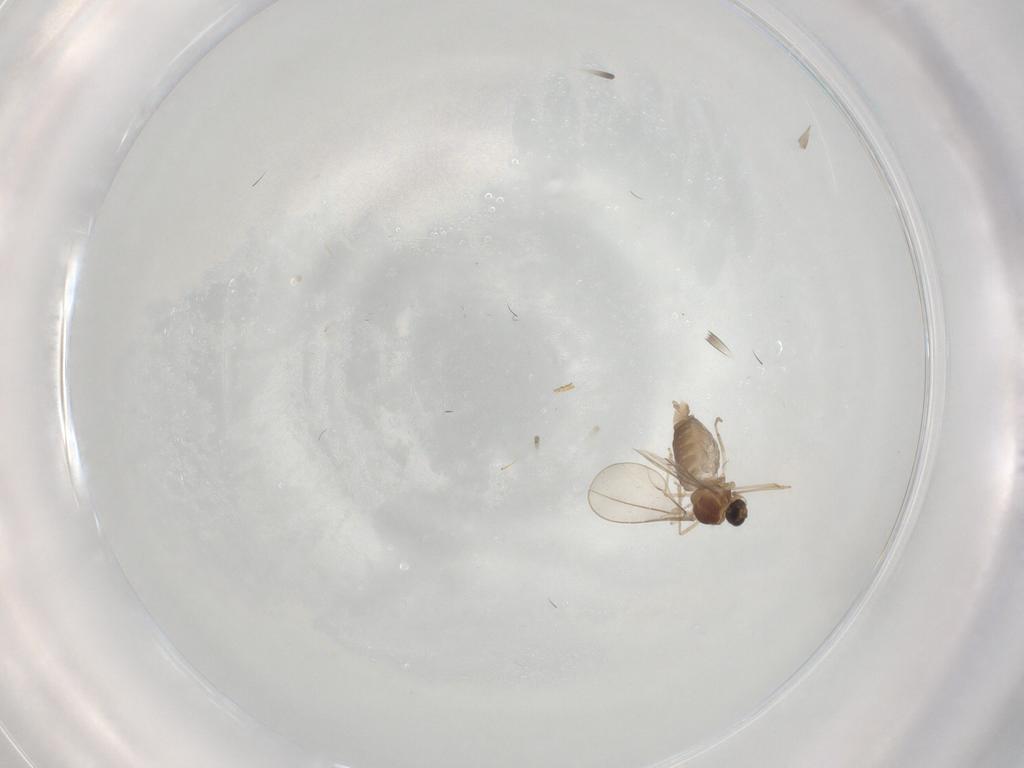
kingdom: Animalia
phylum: Arthropoda
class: Insecta
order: Diptera
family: Cecidomyiidae
